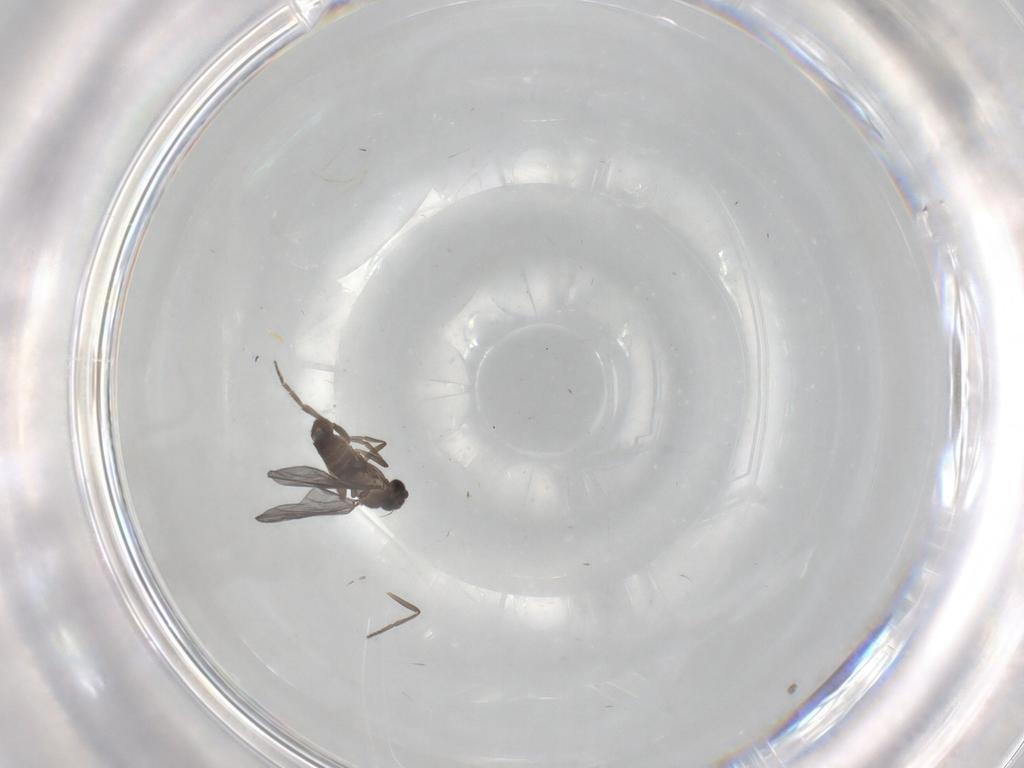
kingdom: Animalia
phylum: Arthropoda
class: Insecta
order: Diptera
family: Phoridae
